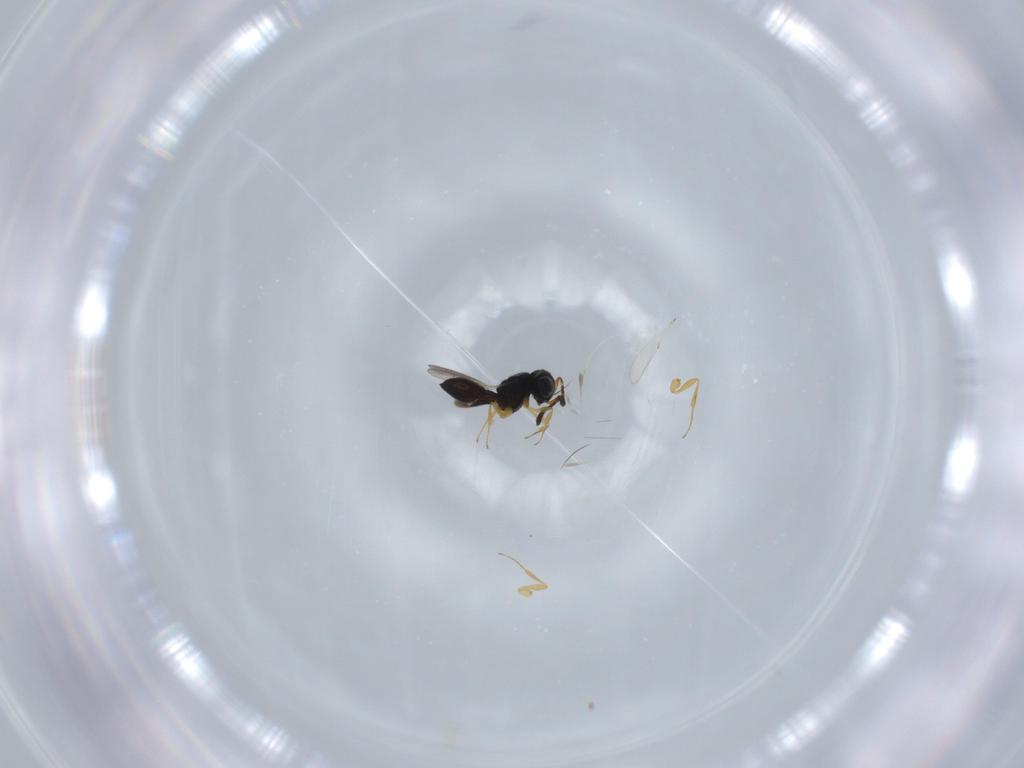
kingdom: Animalia
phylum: Arthropoda
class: Insecta
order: Hymenoptera
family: Scelionidae
